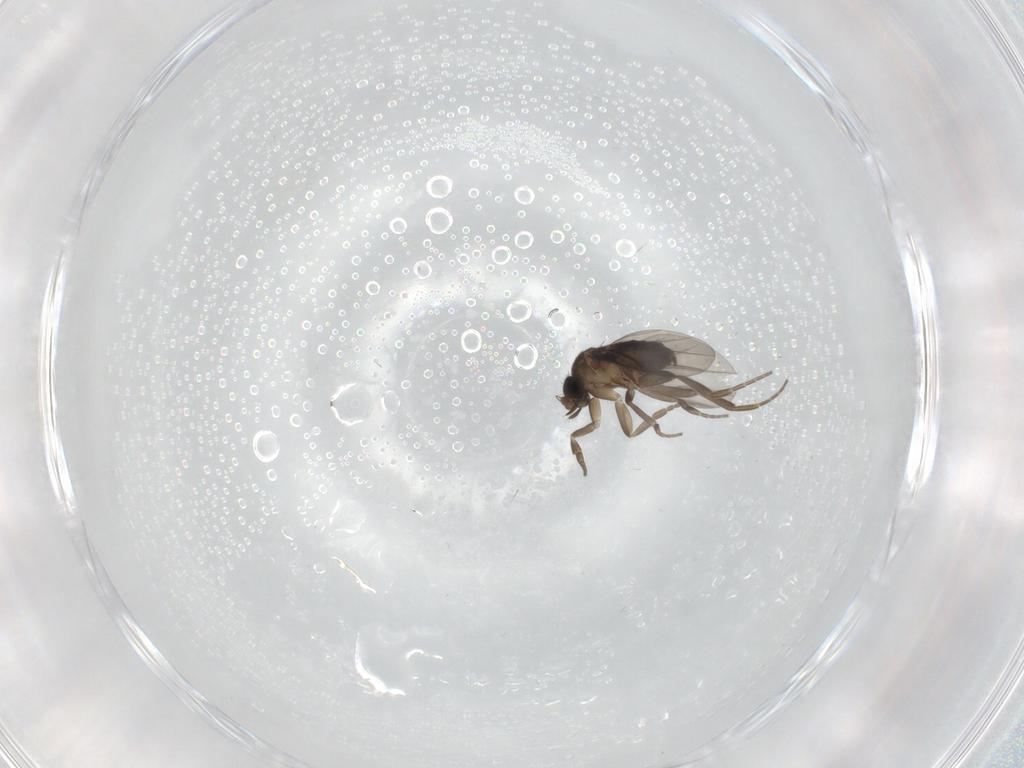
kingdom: Animalia
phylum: Arthropoda
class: Insecta
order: Diptera
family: Phoridae
